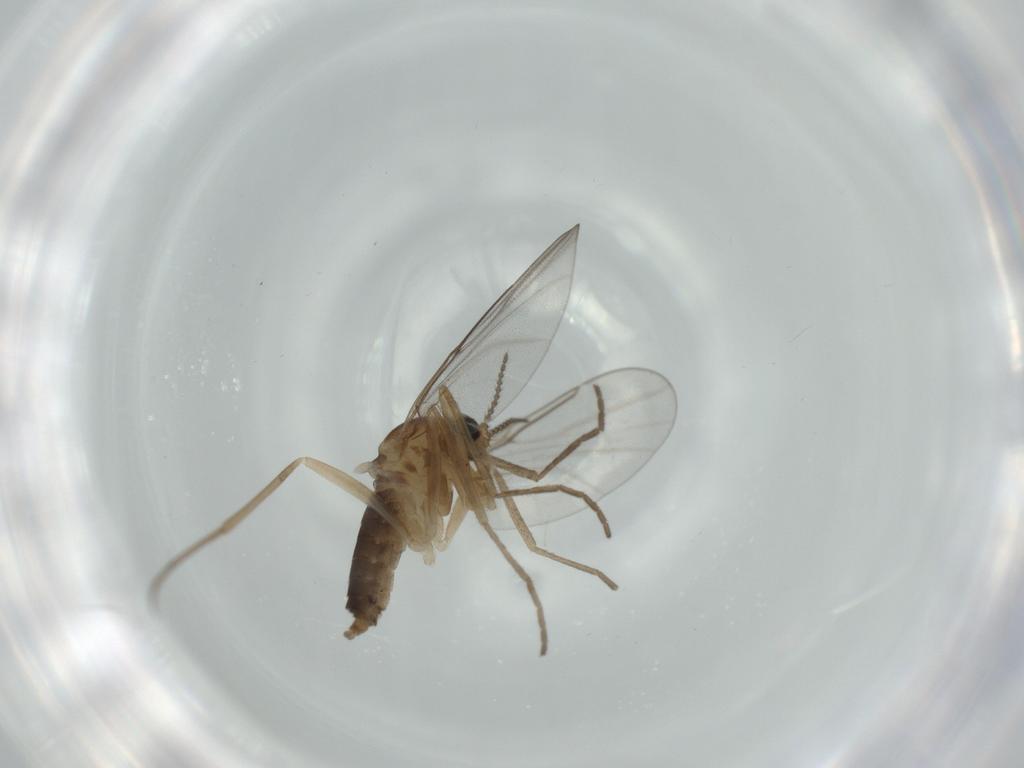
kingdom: Animalia
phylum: Arthropoda
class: Insecta
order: Diptera
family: Cecidomyiidae
